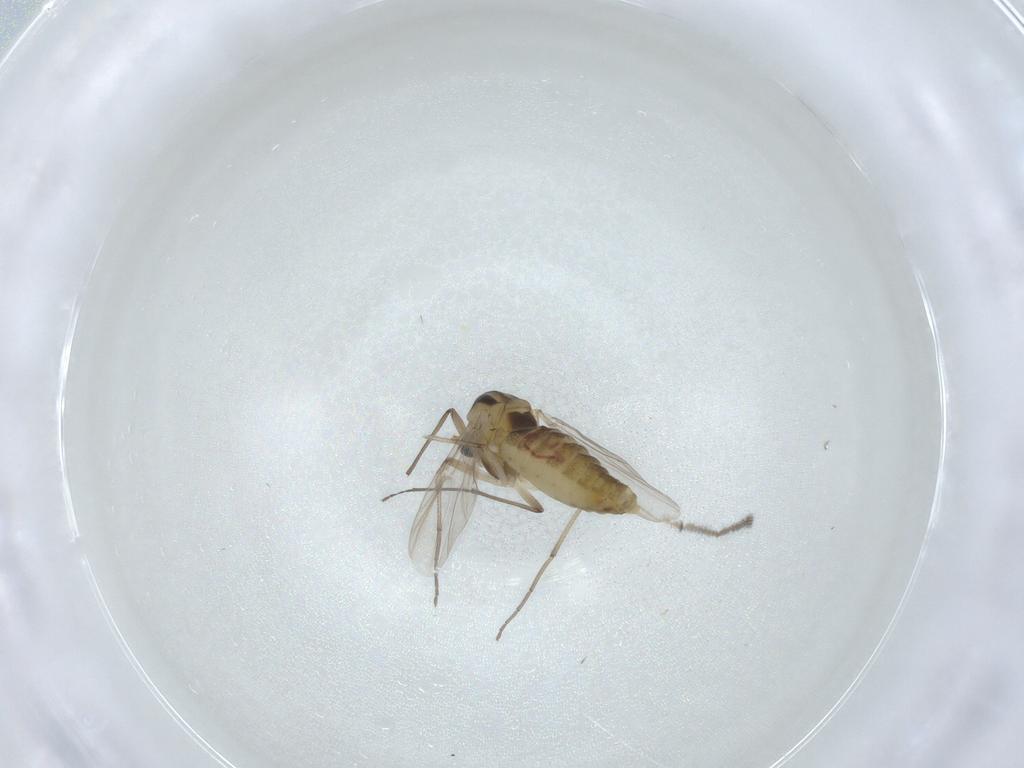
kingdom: Animalia
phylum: Arthropoda
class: Insecta
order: Diptera
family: Chironomidae
